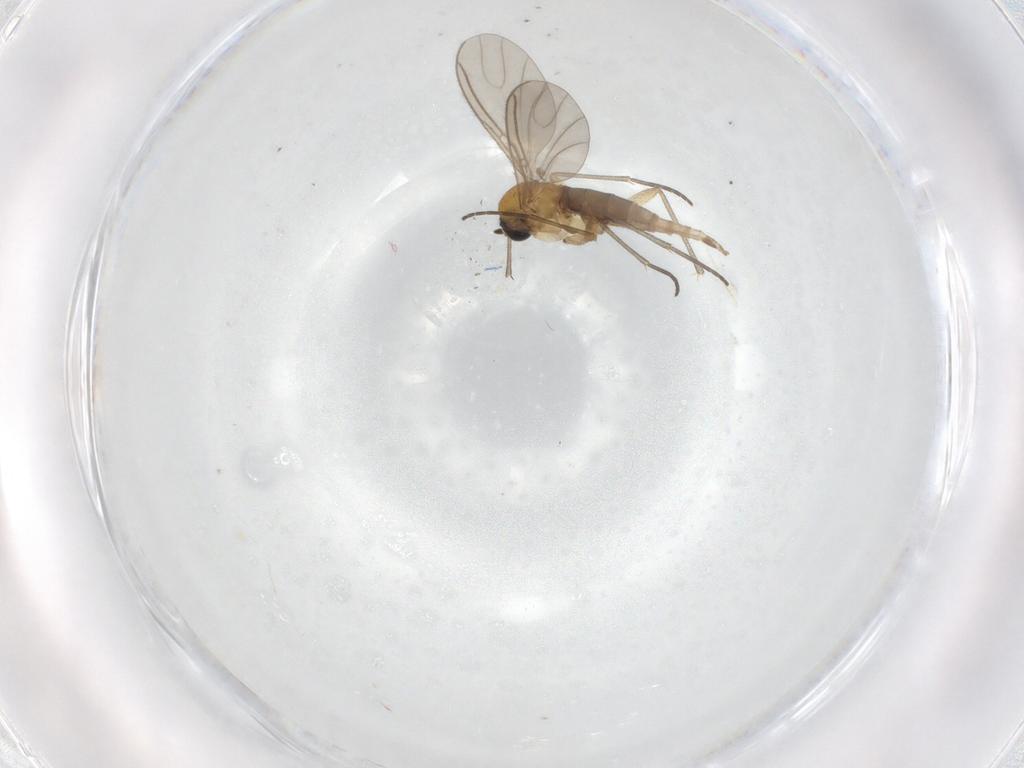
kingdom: Animalia
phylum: Arthropoda
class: Insecta
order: Diptera
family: Sciaridae
